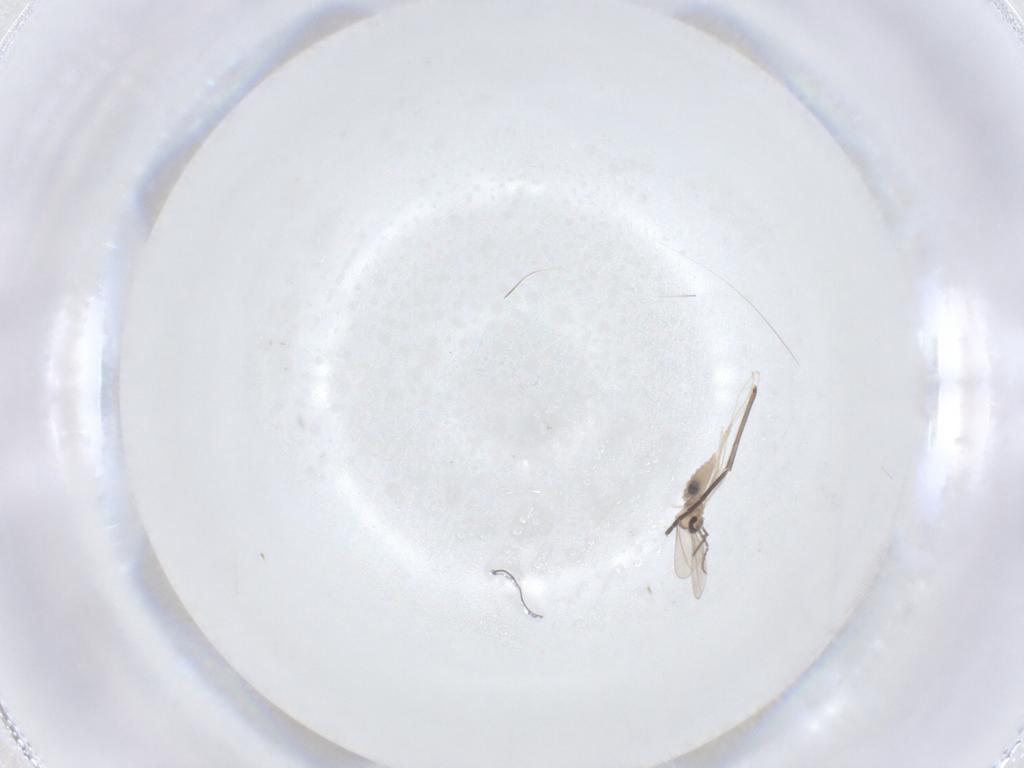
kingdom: Animalia
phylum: Arthropoda
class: Insecta
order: Diptera
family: Sciaridae
